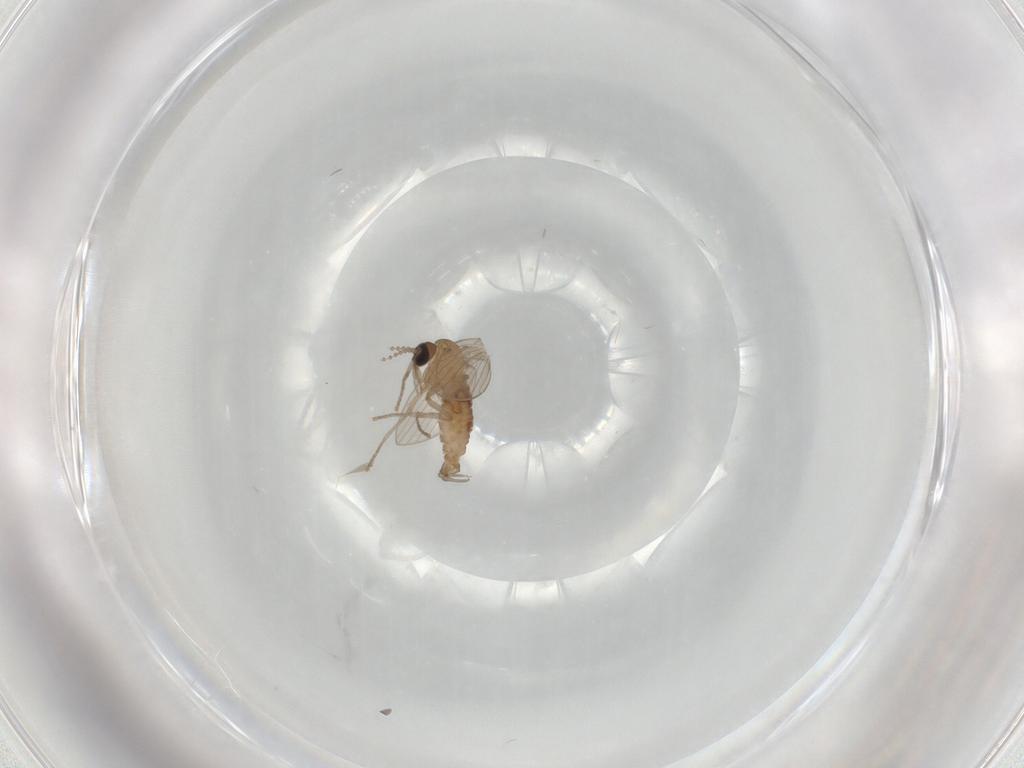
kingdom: Animalia
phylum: Arthropoda
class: Insecta
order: Diptera
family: Psychodidae
